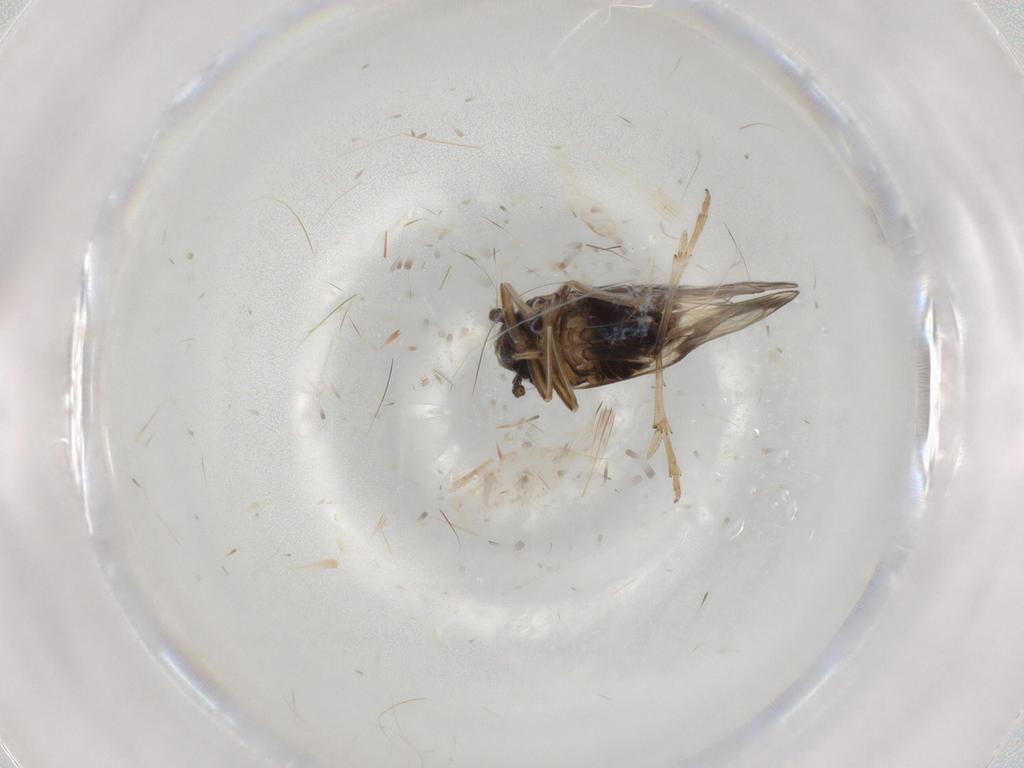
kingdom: Animalia
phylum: Arthropoda
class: Insecta
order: Hemiptera
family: Delphacidae
